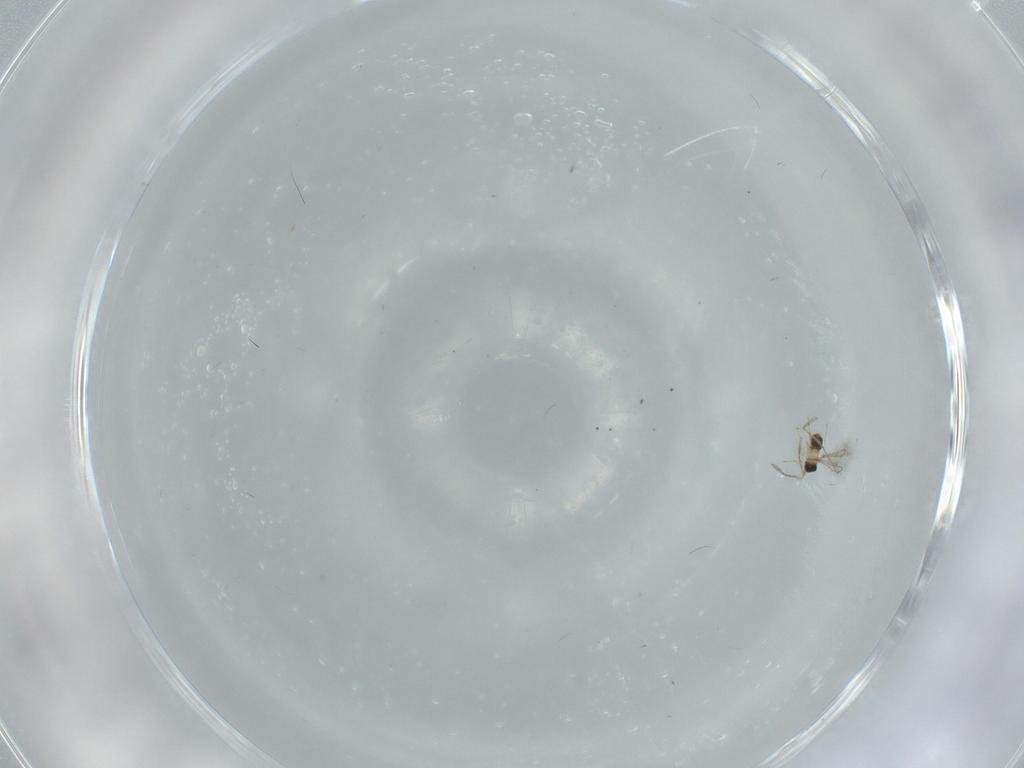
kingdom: Animalia
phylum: Arthropoda
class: Insecta
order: Hymenoptera
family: Mymaridae
